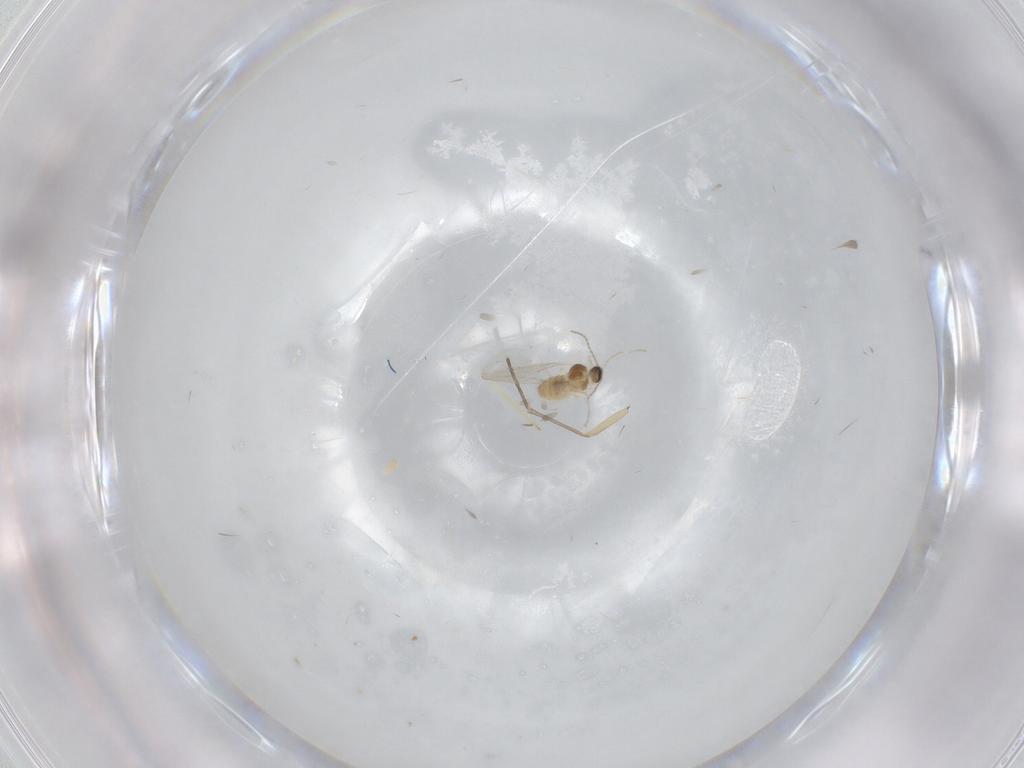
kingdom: Animalia
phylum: Arthropoda
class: Insecta
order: Diptera
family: Phoridae
